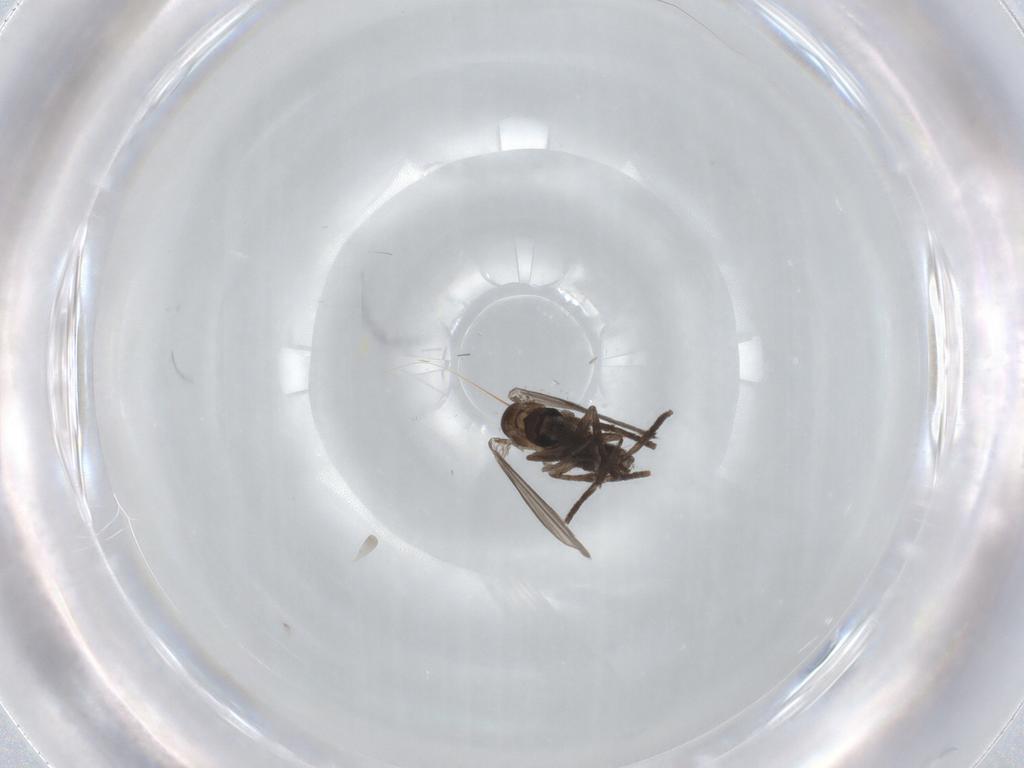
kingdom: Animalia
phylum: Arthropoda
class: Insecta
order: Diptera
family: Psychodidae
